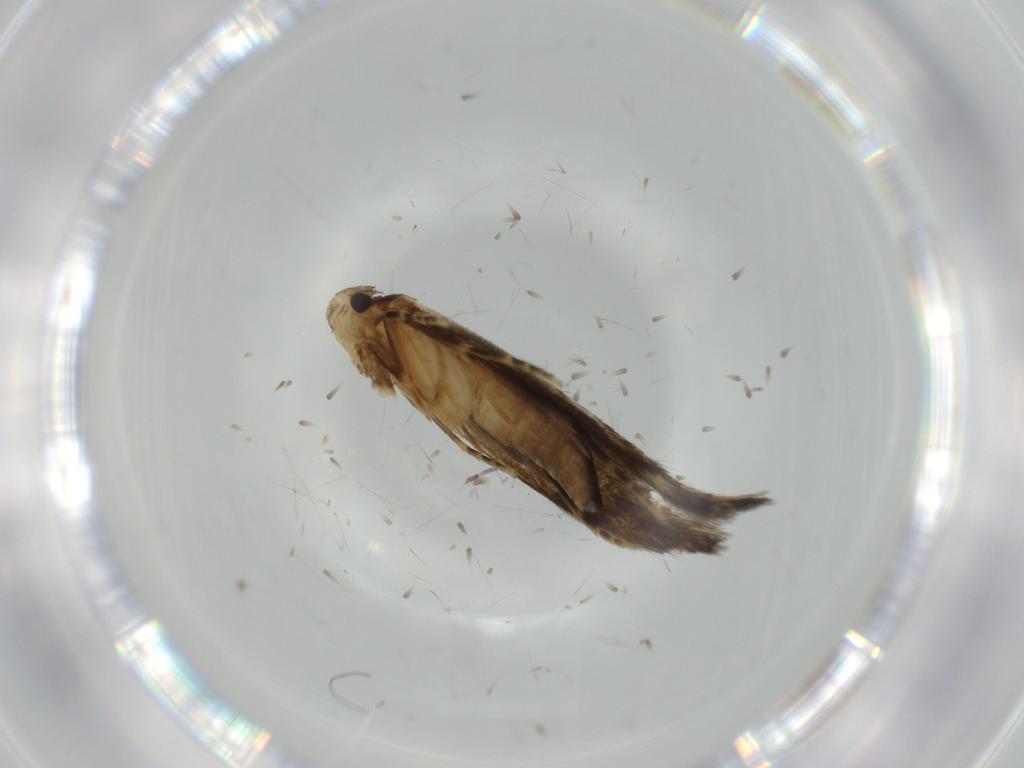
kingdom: Animalia
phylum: Arthropoda
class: Insecta
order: Lepidoptera
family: Tineidae
